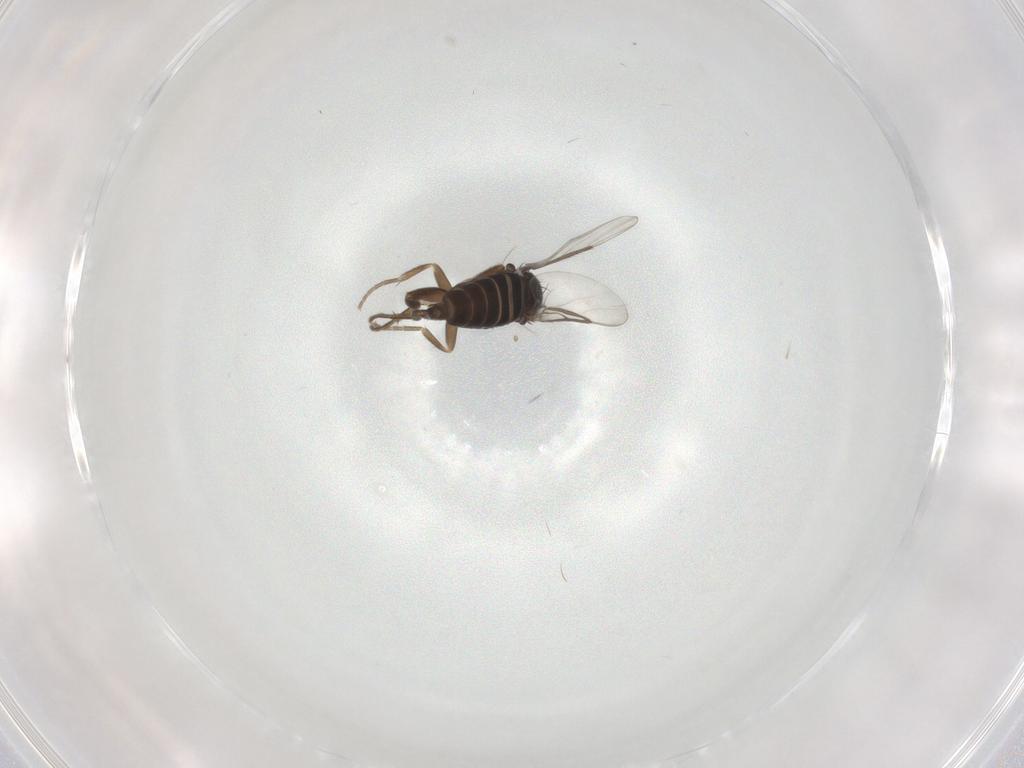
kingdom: Animalia
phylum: Arthropoda
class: Insecta
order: Diptera
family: Phoridae
